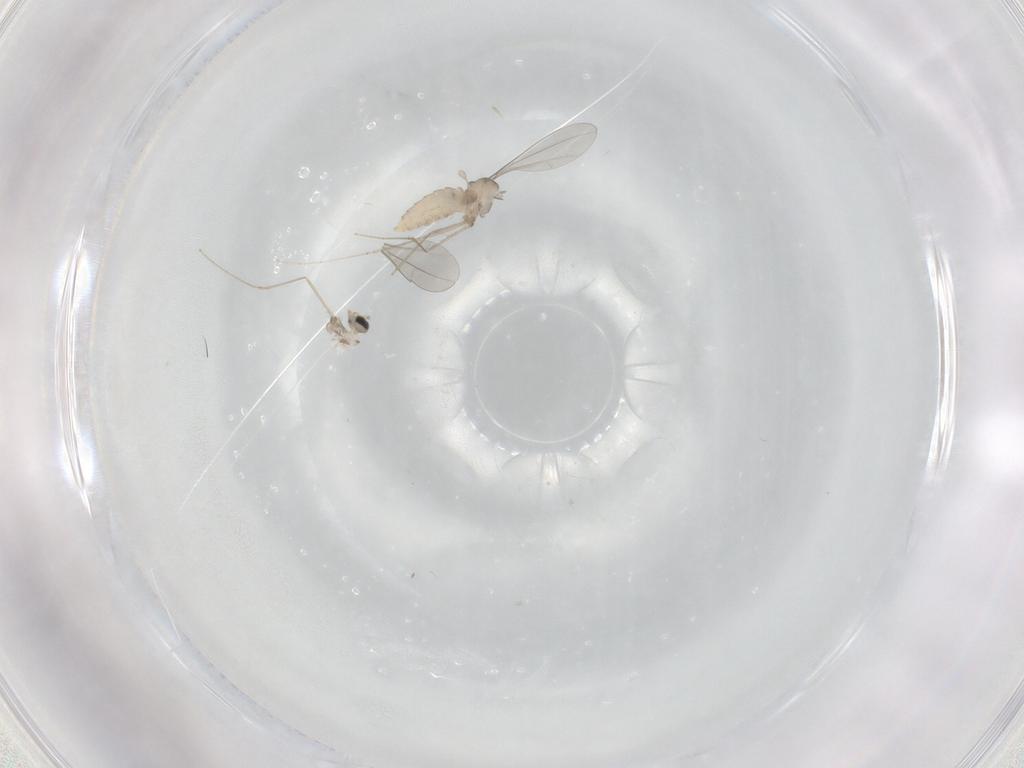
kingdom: Animalia
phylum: Arthropoda
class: Insecta
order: Diptera
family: Cecidomyiidae
